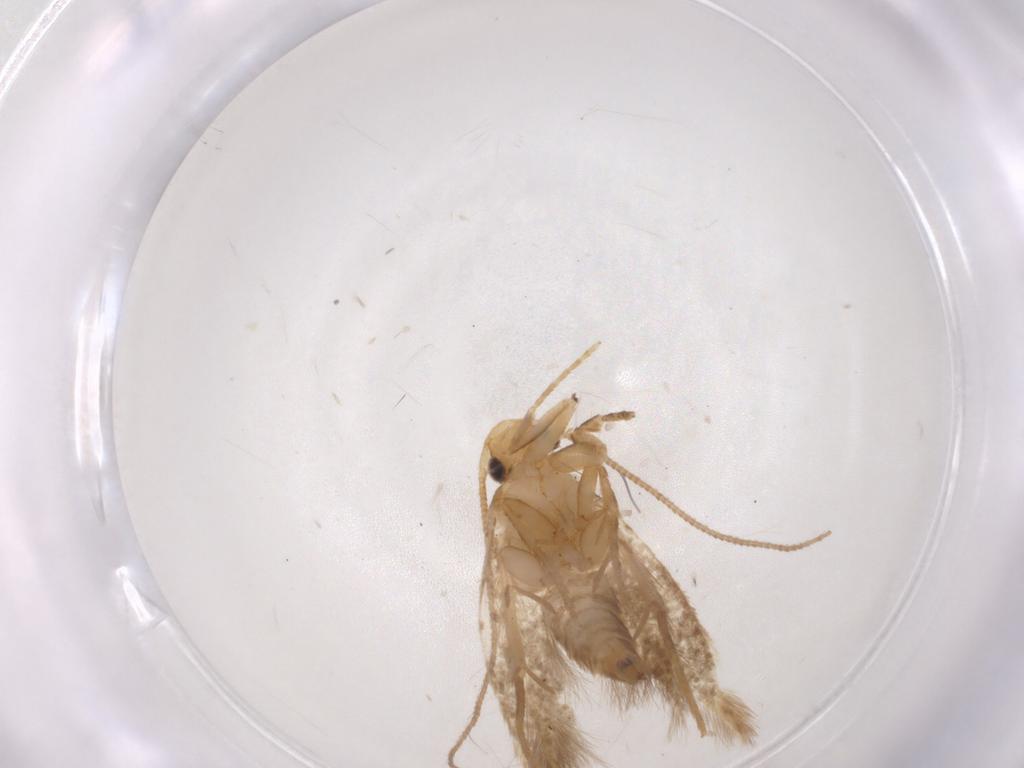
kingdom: Animalia
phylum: Arthropoda
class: Insecta
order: Lepidoptera
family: Tineidae
